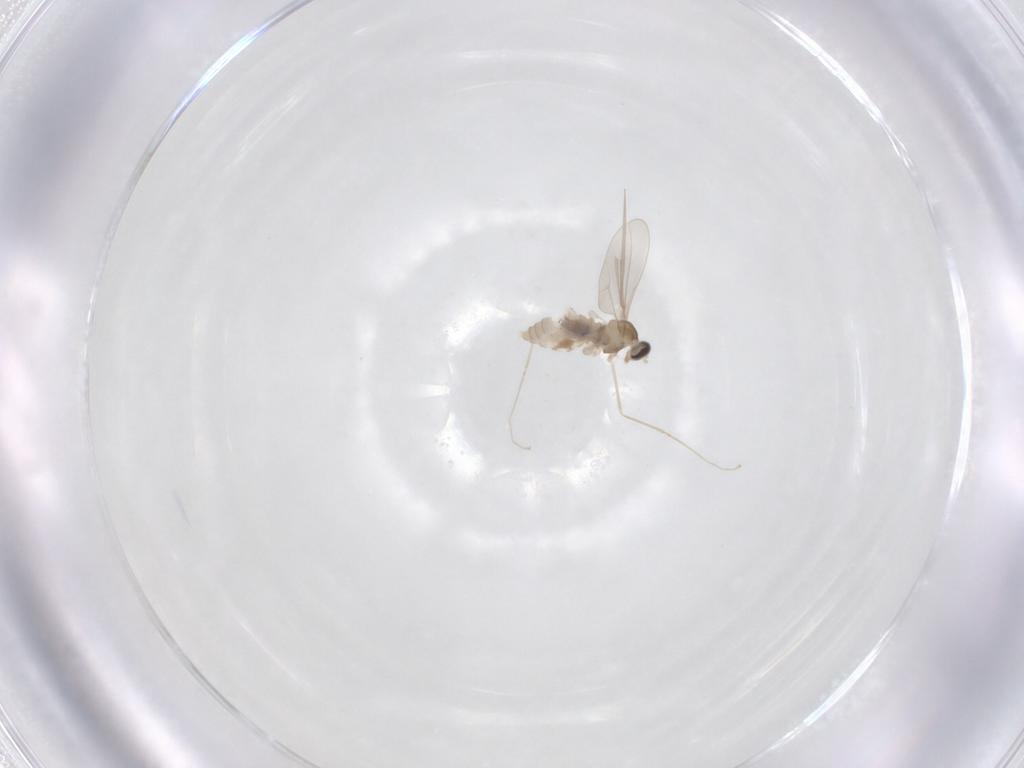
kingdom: Animalia
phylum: Arthropoda
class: Insecta
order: Diptera
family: Cecidomyiidae
